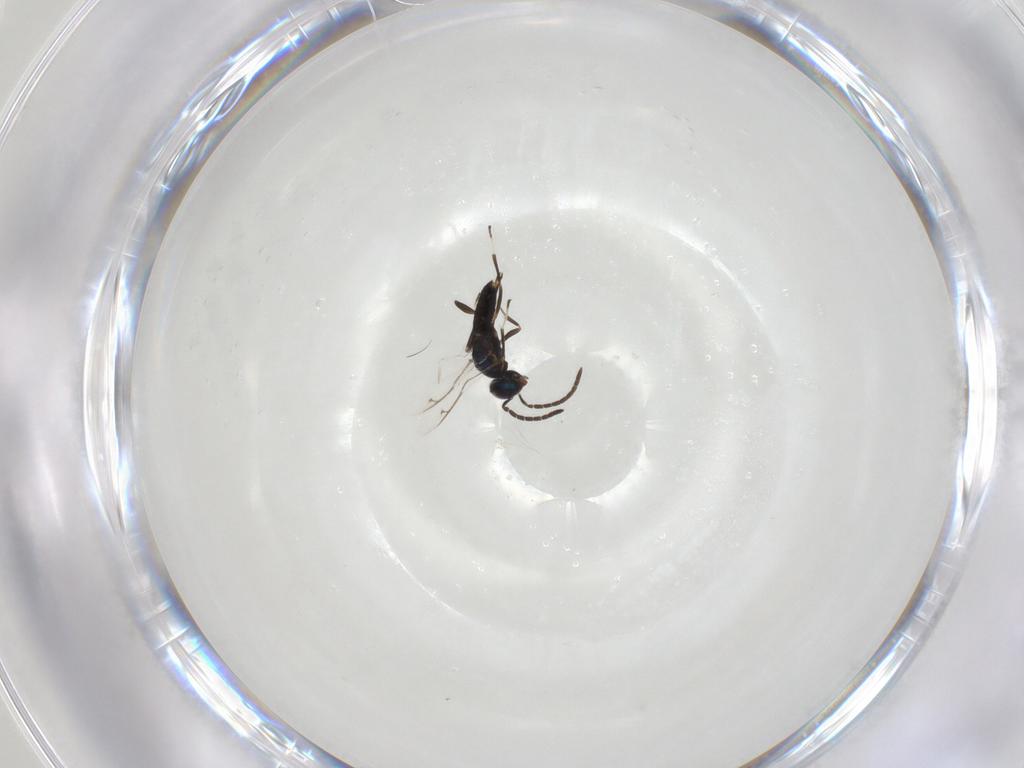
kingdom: Animalia
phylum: Arthropoda
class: Insecta
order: Hymenoptera
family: Eupelmidae
